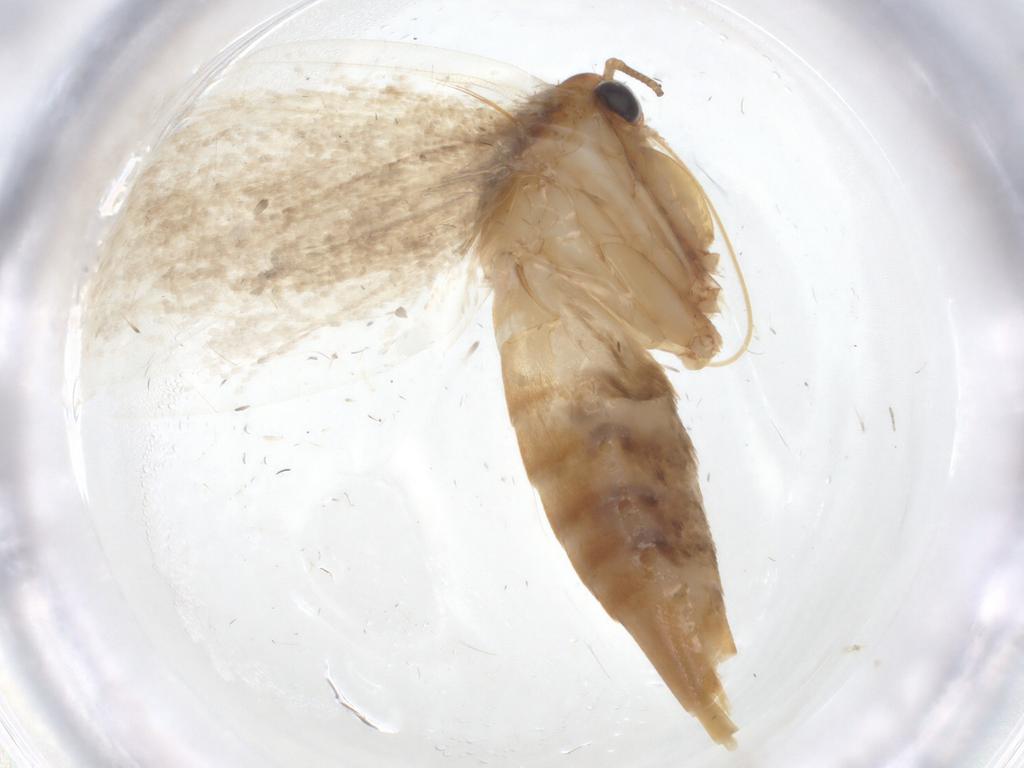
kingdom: Animalia
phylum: Arthropoda
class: Insecta
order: Lepidoptera
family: Oecophoridae
